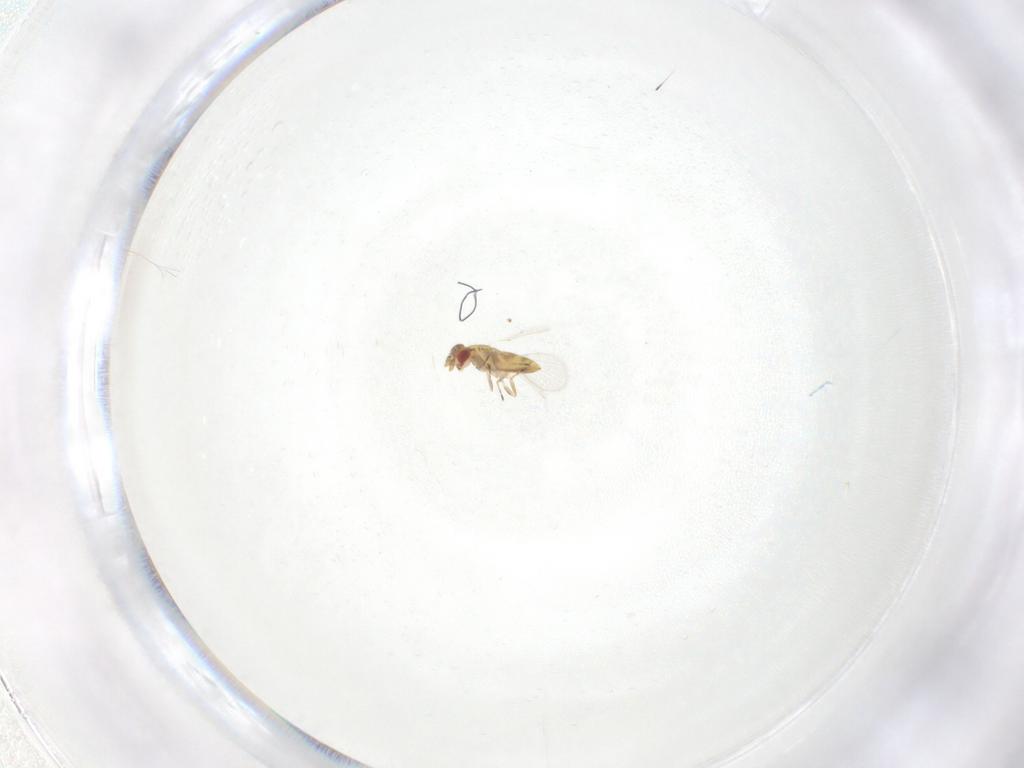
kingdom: Animalia
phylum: Arthropoda
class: Insecta
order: Hymenoptera
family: Trichogrammatidae
